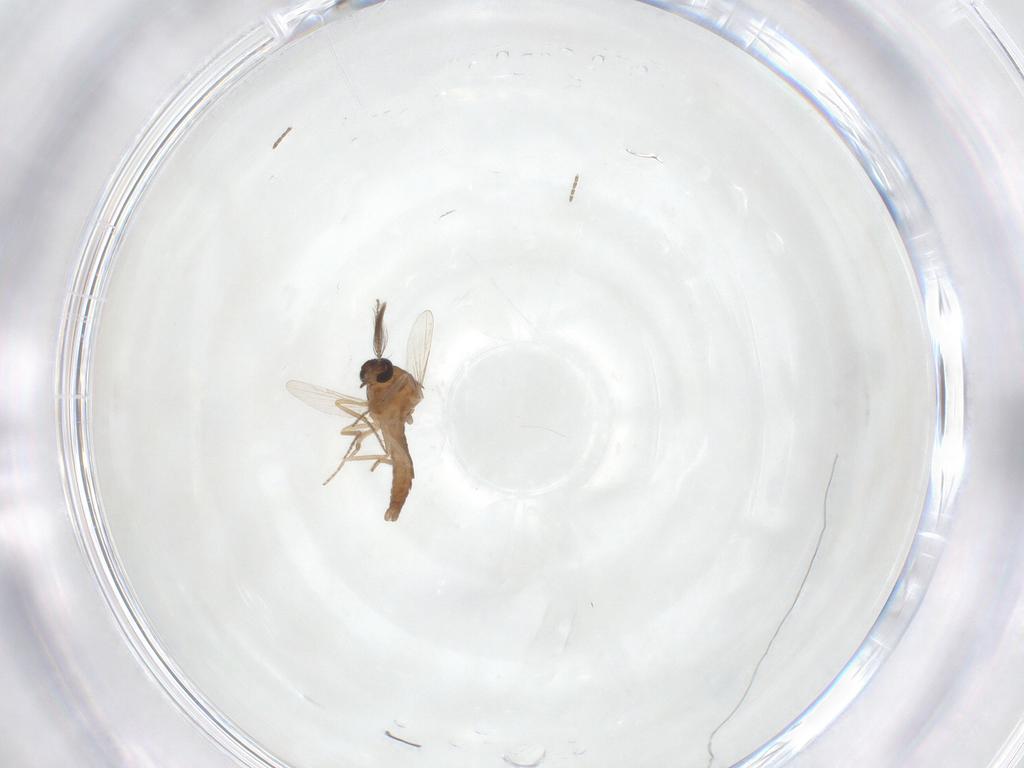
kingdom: Animalia
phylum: Arthropoda
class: Insecta
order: Diptera
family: Ceratopogonidae
